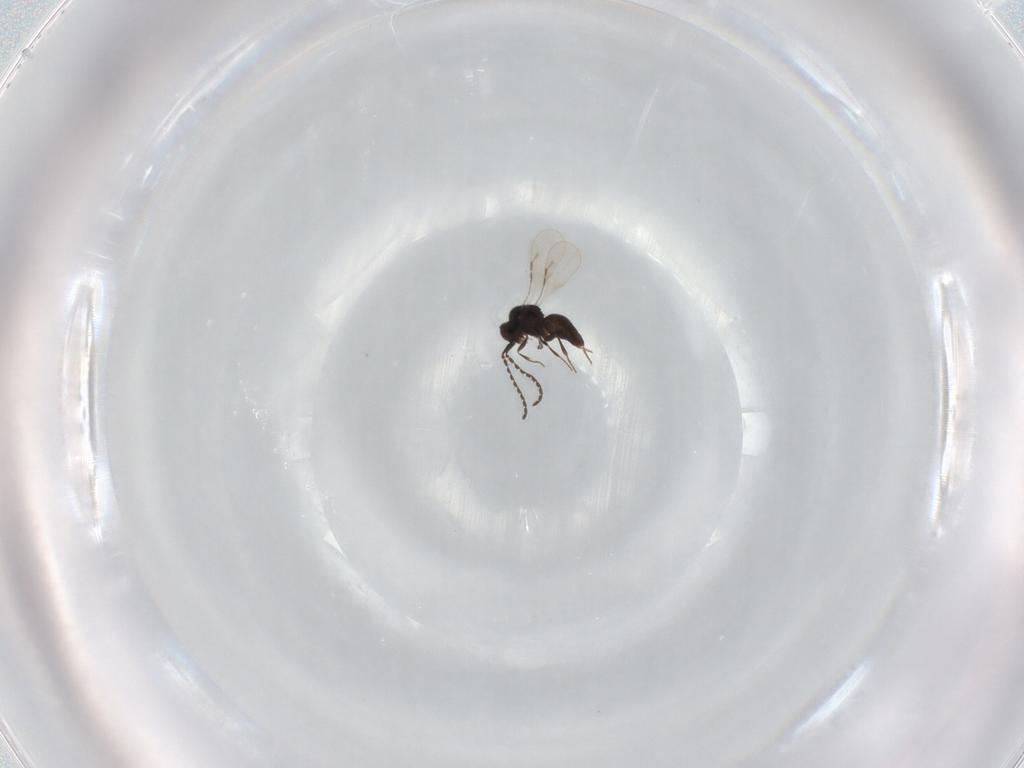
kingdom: Animalia
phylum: Arthropoda
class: Insecta
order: Hymenoptera
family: Ceraphronidae
